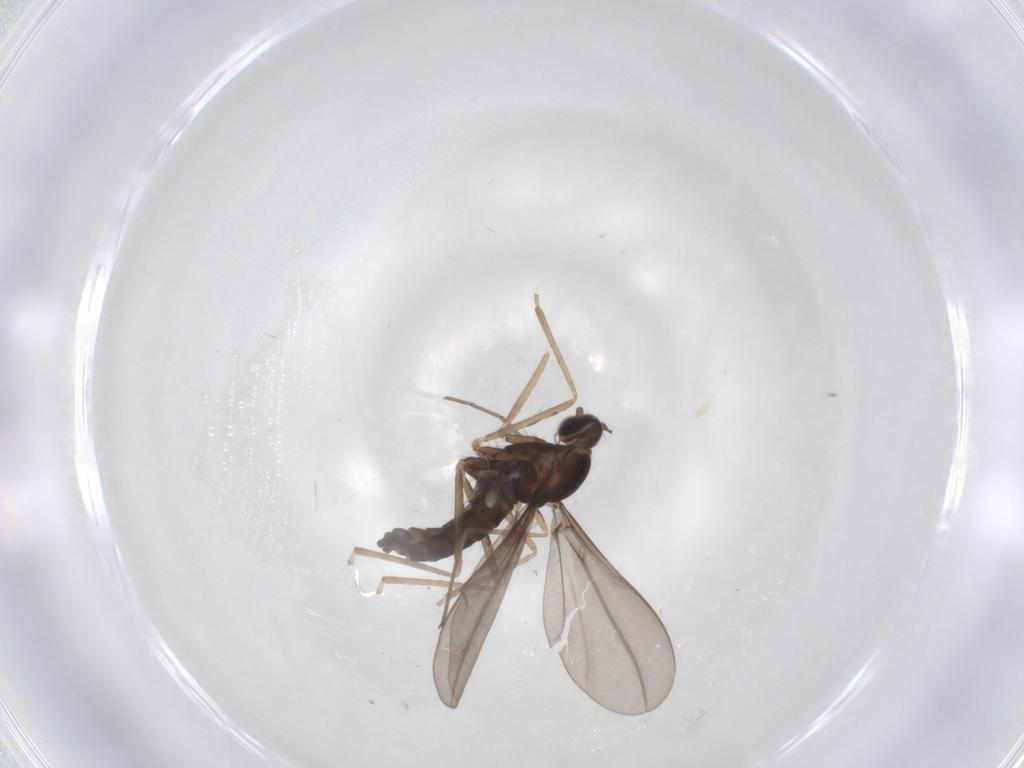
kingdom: Animalia
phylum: Arthropoda
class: Insecta
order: Diptera
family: Cecidomyiidae
